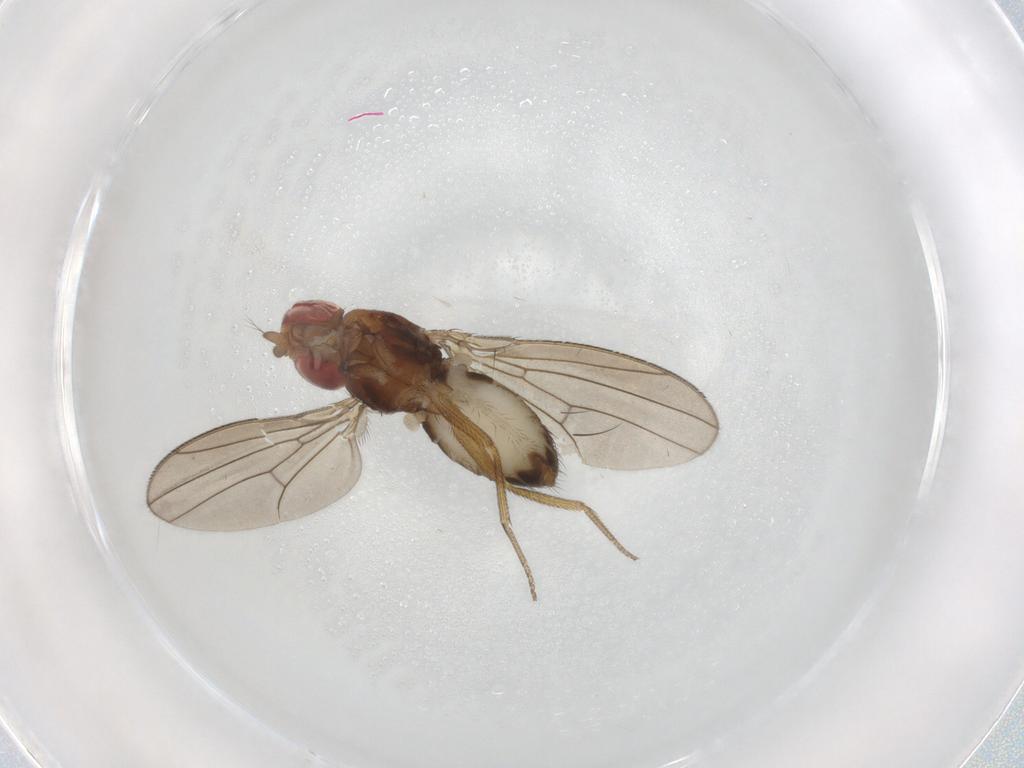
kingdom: Animalia
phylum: Arthropoda
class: Insecta
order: Diptera
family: Drosophilidae
